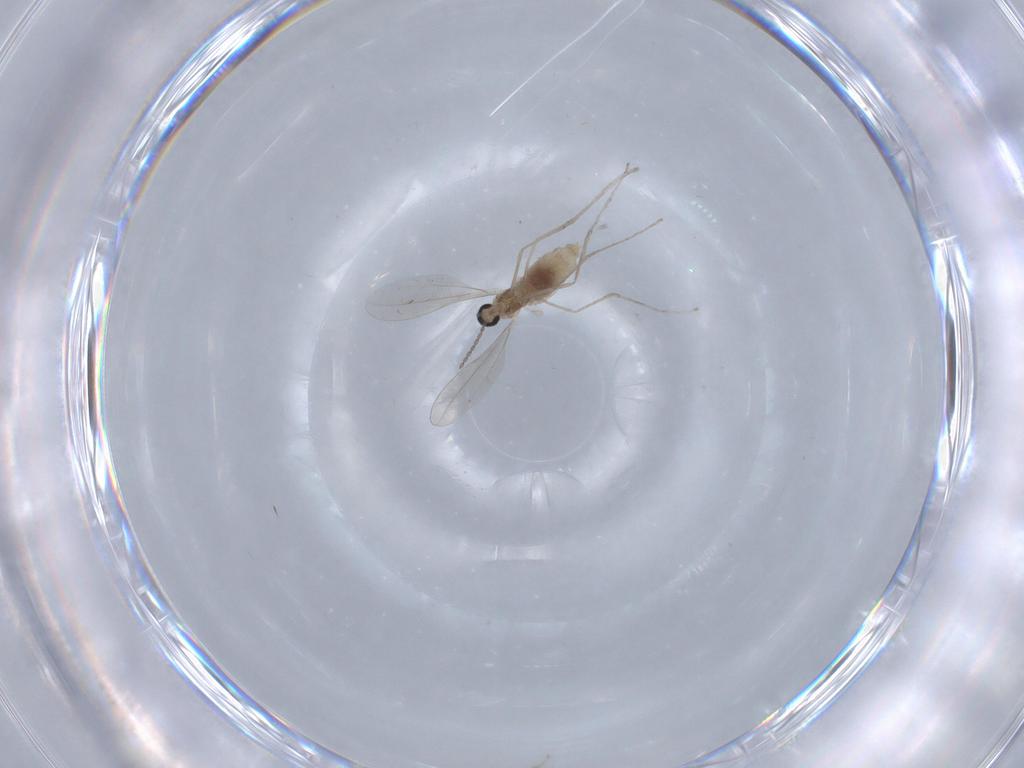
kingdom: Animalia
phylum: Arthropoda
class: Insecta
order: Diptera
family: Cecidomyiidae
